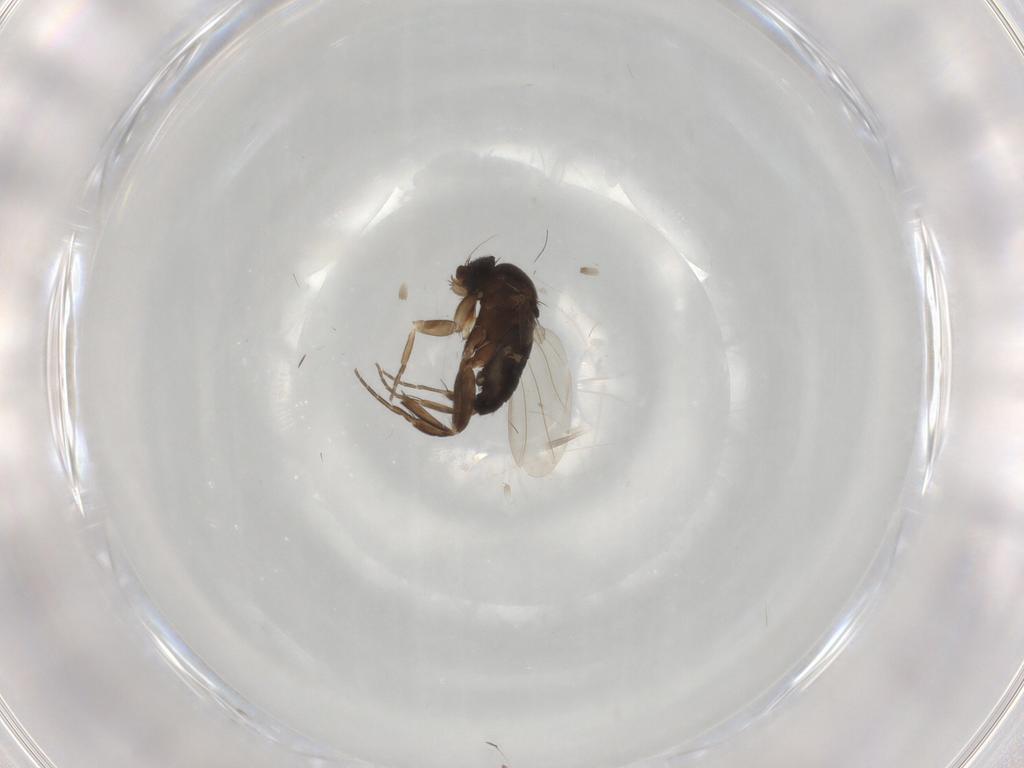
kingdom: Animalia
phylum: Arthropoda
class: Insecta
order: Diptera
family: Phoridae
